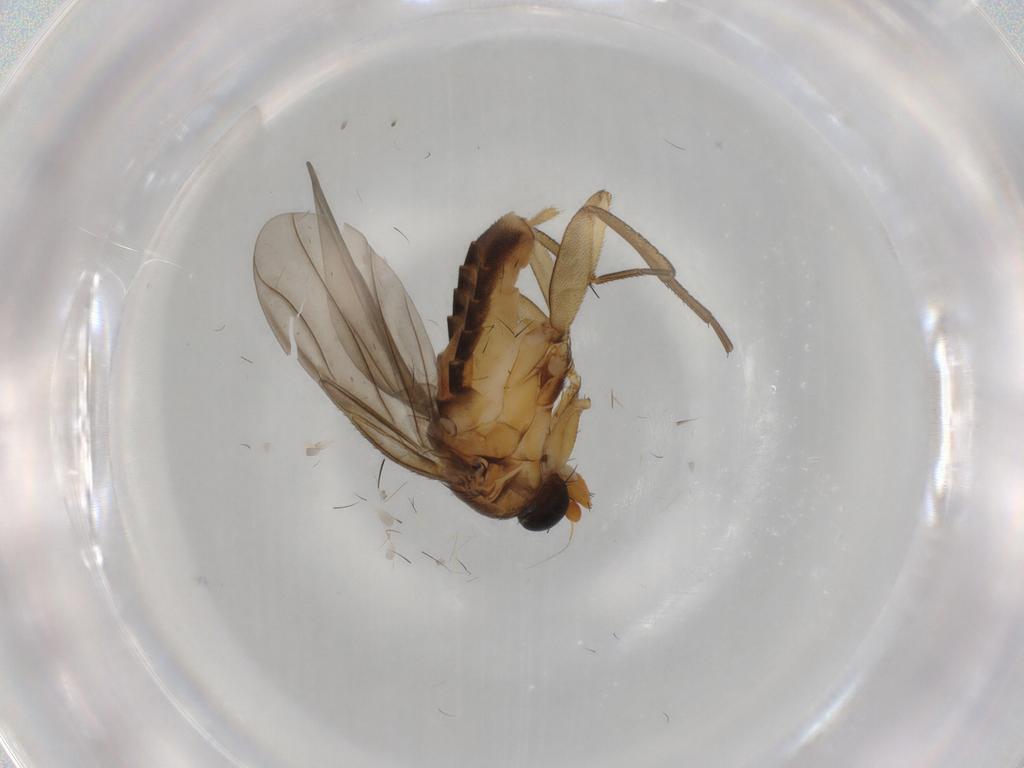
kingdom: Animalia
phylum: Arthropoda
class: Insecta
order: Diptera
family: Phoridae
